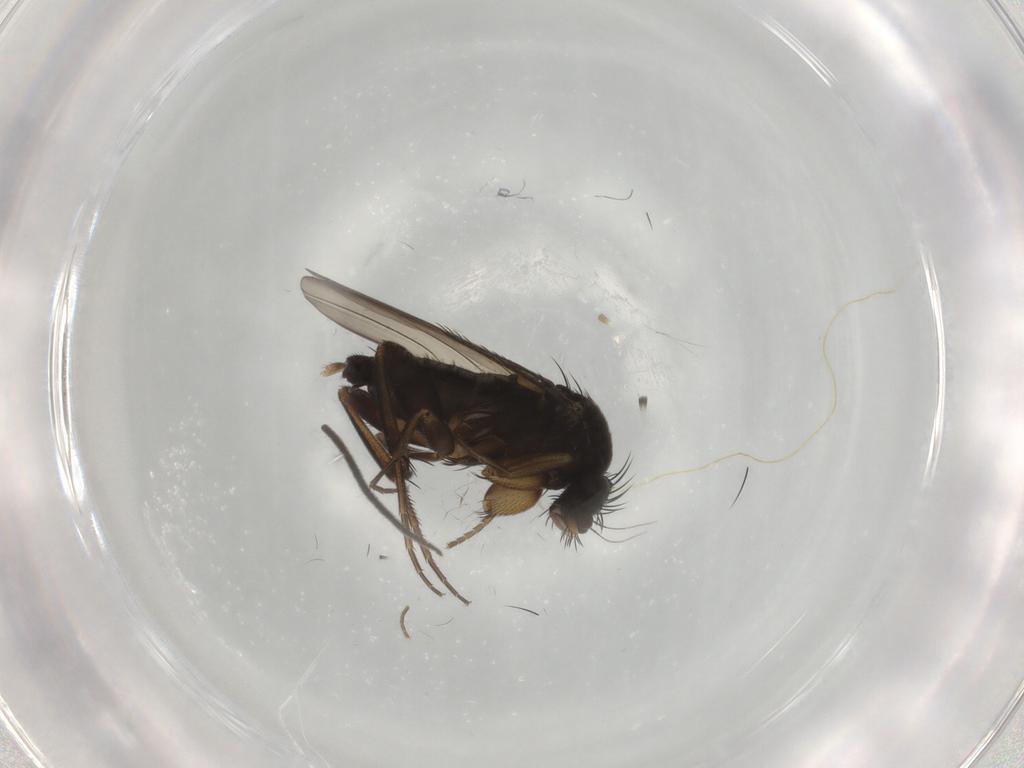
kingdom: Animalia
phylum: Arthropoda
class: Insecta
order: Diptera
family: Phoridae
